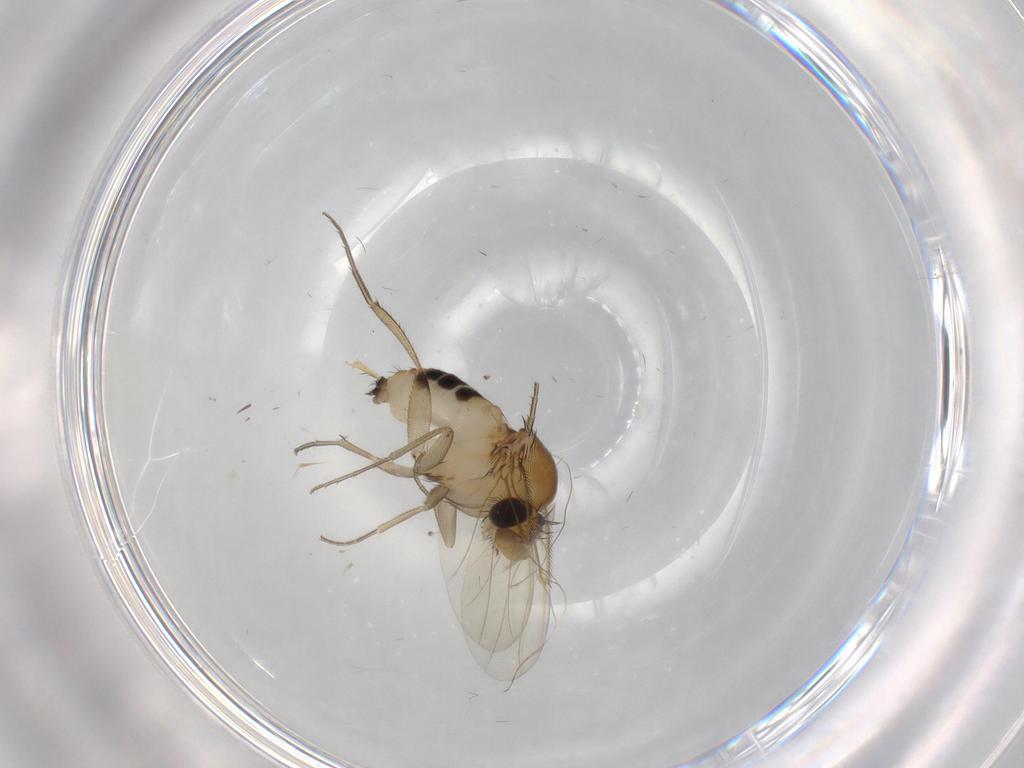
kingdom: Animalia
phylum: Arthropoda
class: Insecta
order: Diptera
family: Phoridae
